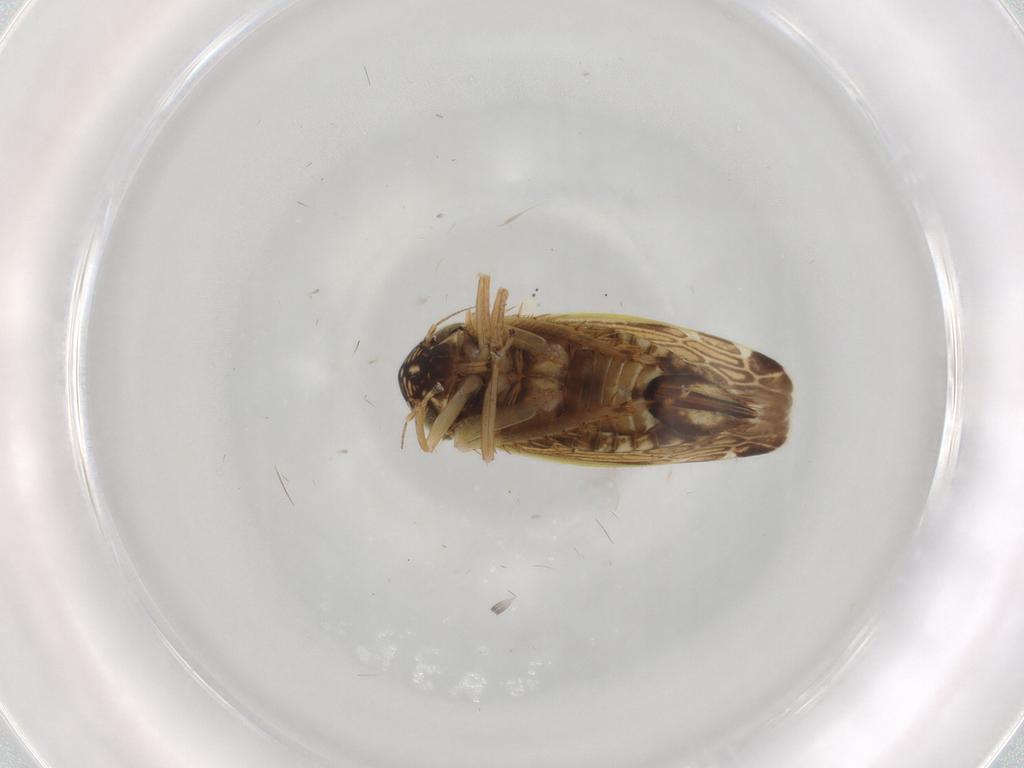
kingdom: Animalia
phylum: Arthropoda
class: Insecta
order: Hemiptera
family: Cicadellidae
